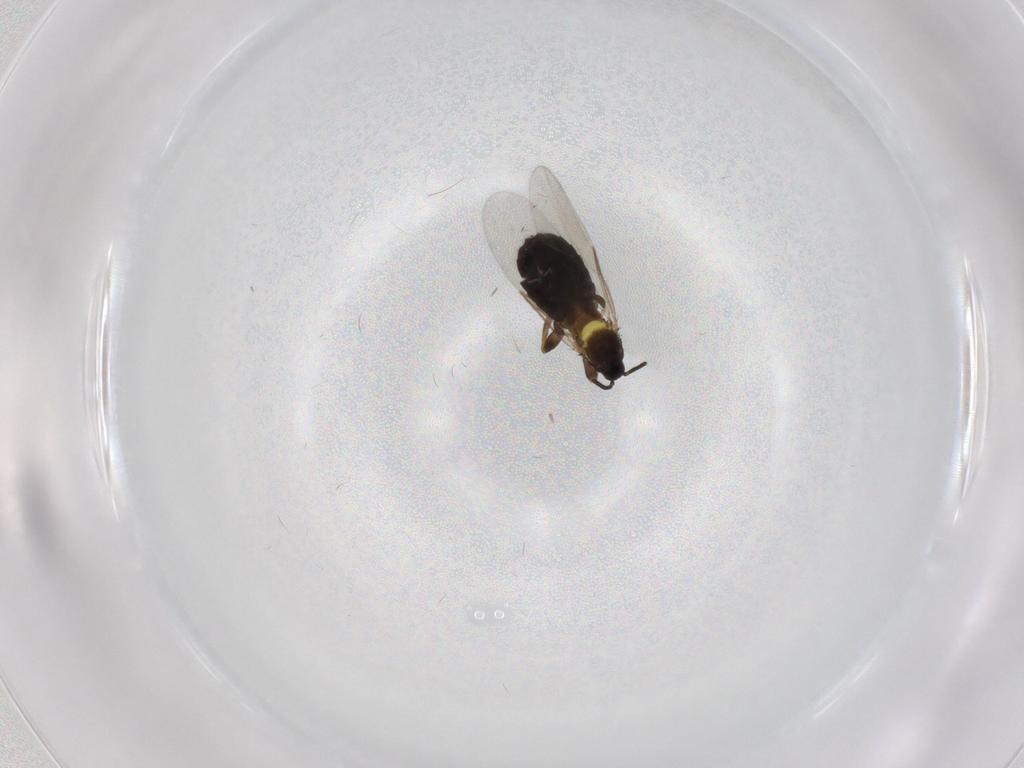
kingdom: Animalia
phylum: Arthropoda
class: Insecta
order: Diptera
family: Scatopsidae
